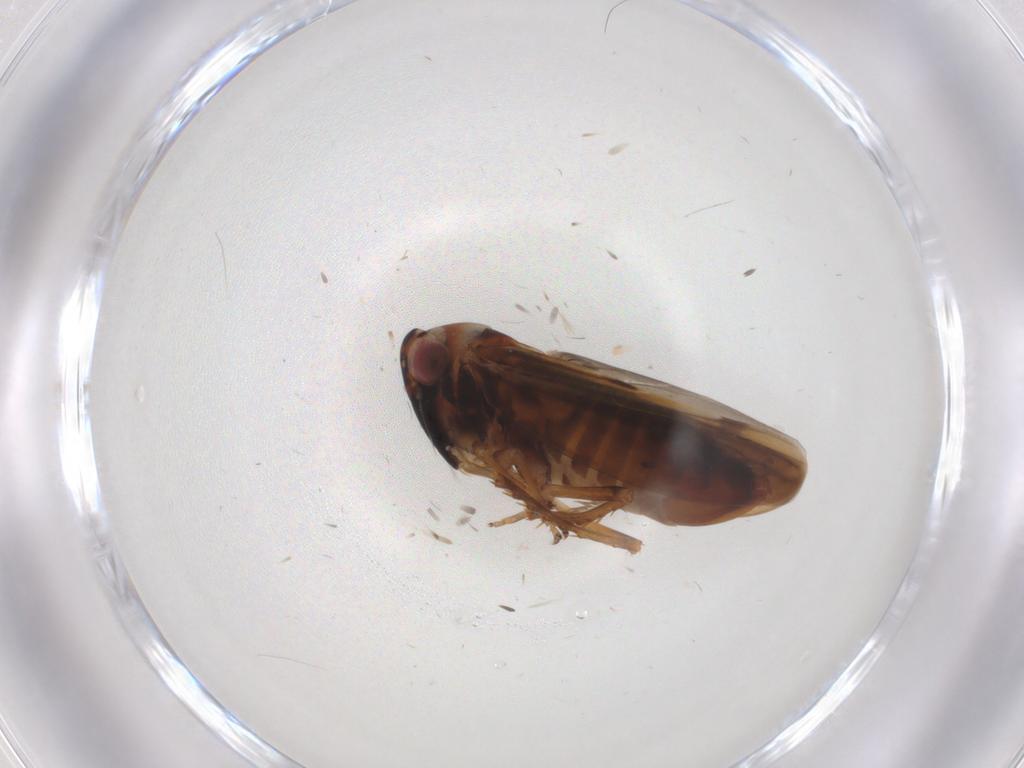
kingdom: Animalia
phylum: Arthropoda
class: Insecta
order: Hemiptera
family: Cicadellidae
